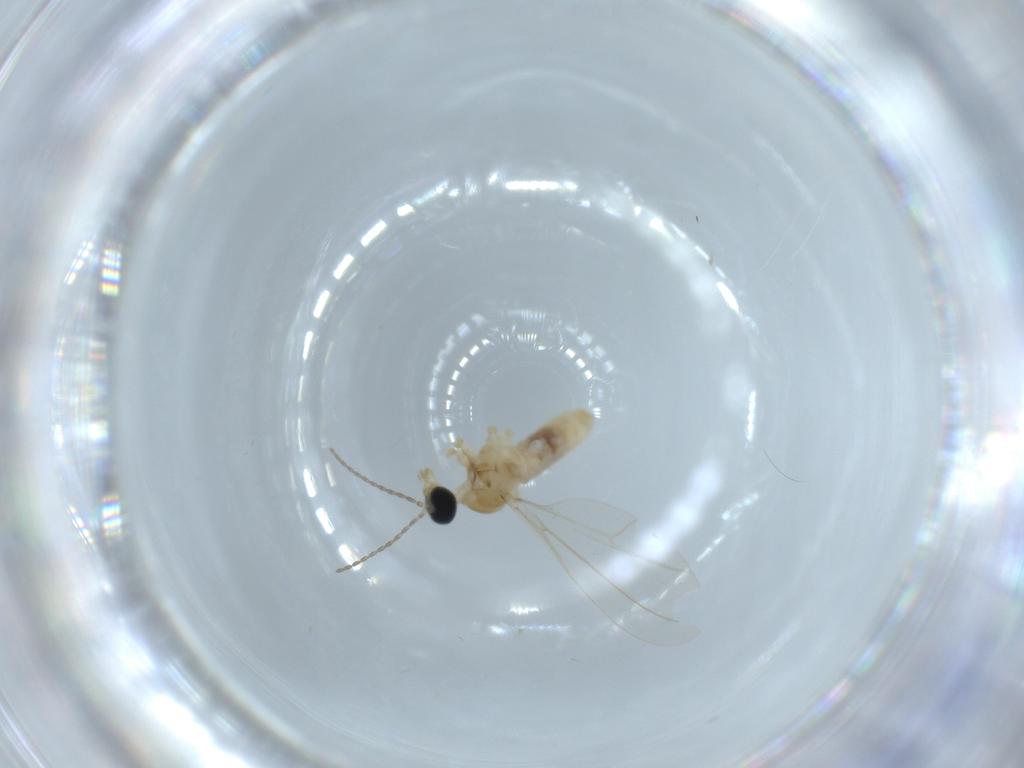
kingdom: Animalia
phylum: Arthropoda
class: Insecta
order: Diptera
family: Cecidomyiidae
